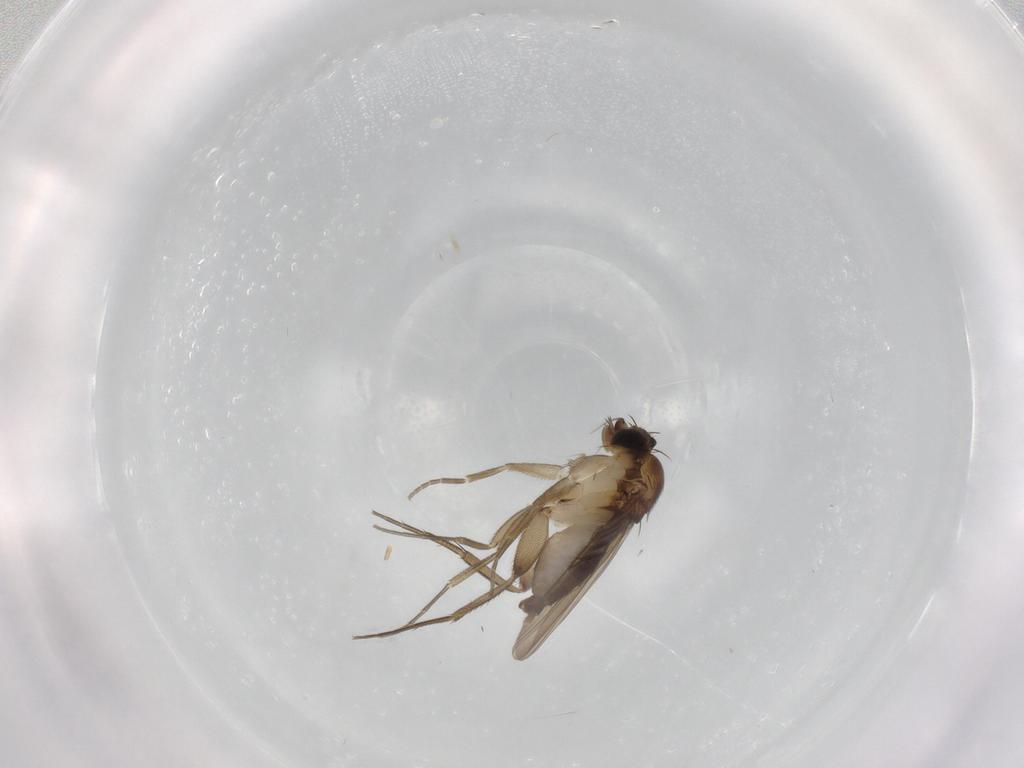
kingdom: Animalia
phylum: Arthropoda
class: Insecta
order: Diptera
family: Phoridae
